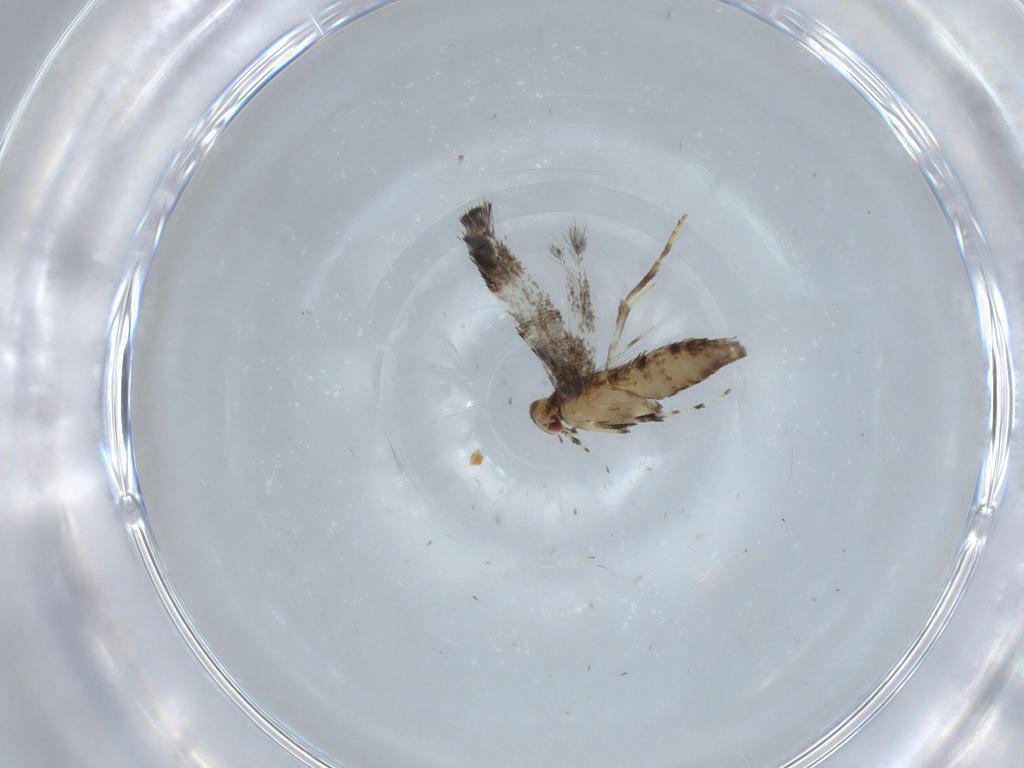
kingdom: Animalia
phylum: Arthropoda
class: Insecta
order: Lepidoptera
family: Gracillariidae
